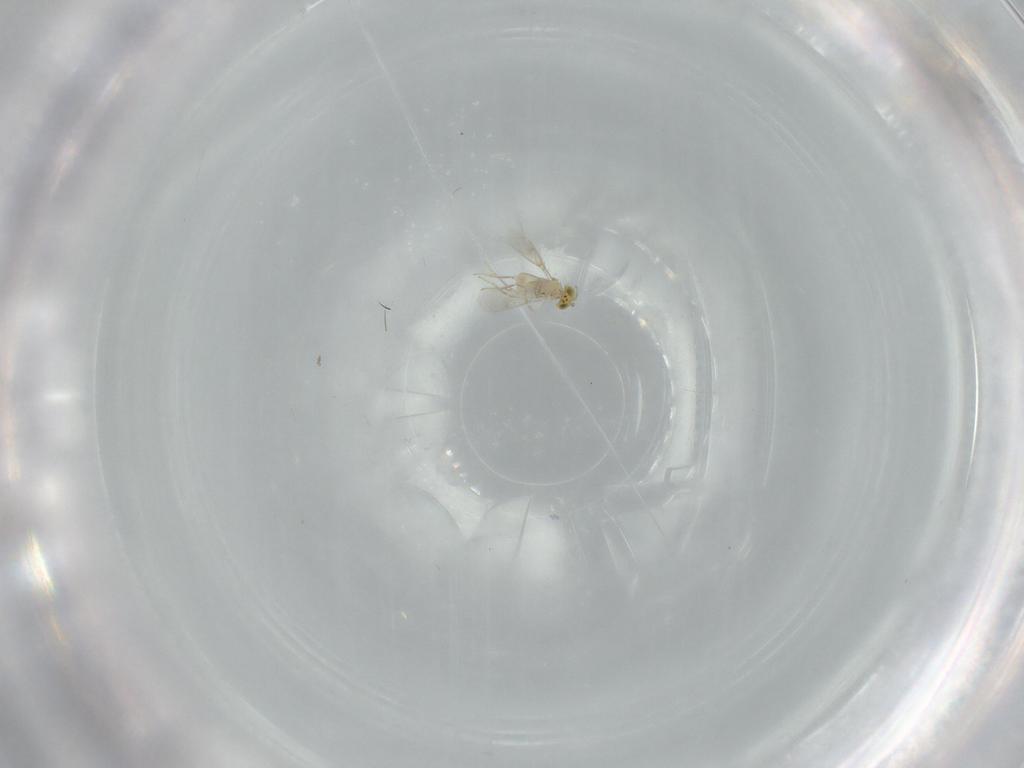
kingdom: Animalia
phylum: Arthropoda
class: Insecta
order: Hymenoptera
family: Aphelinidae
